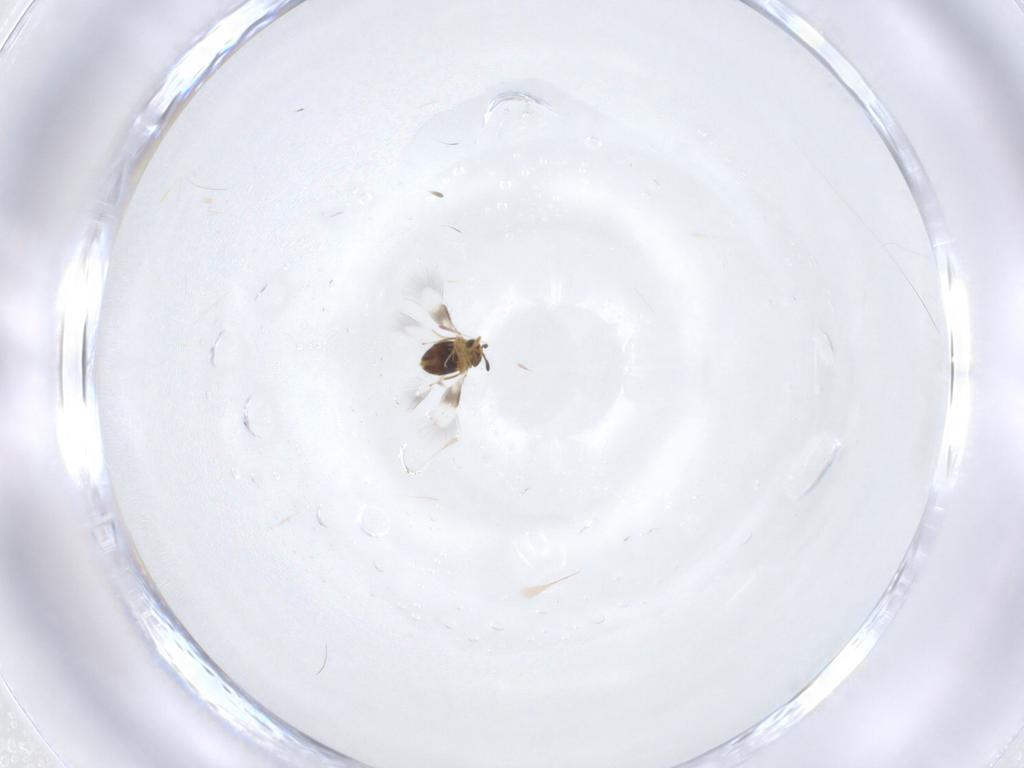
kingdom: Animalia
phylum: Arthropoda
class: Insecta
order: Hymenoptera
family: Signiphoridae
